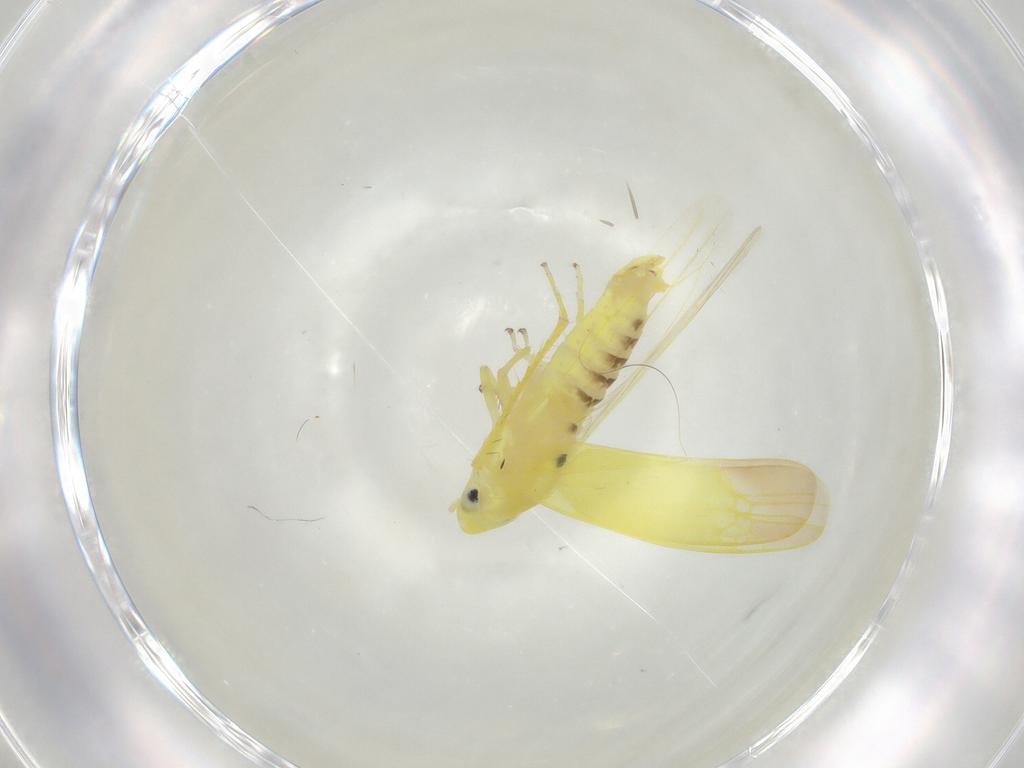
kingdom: Animalia
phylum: Arthropoda
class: Insecta
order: Hemiptera
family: Cicadellidae
